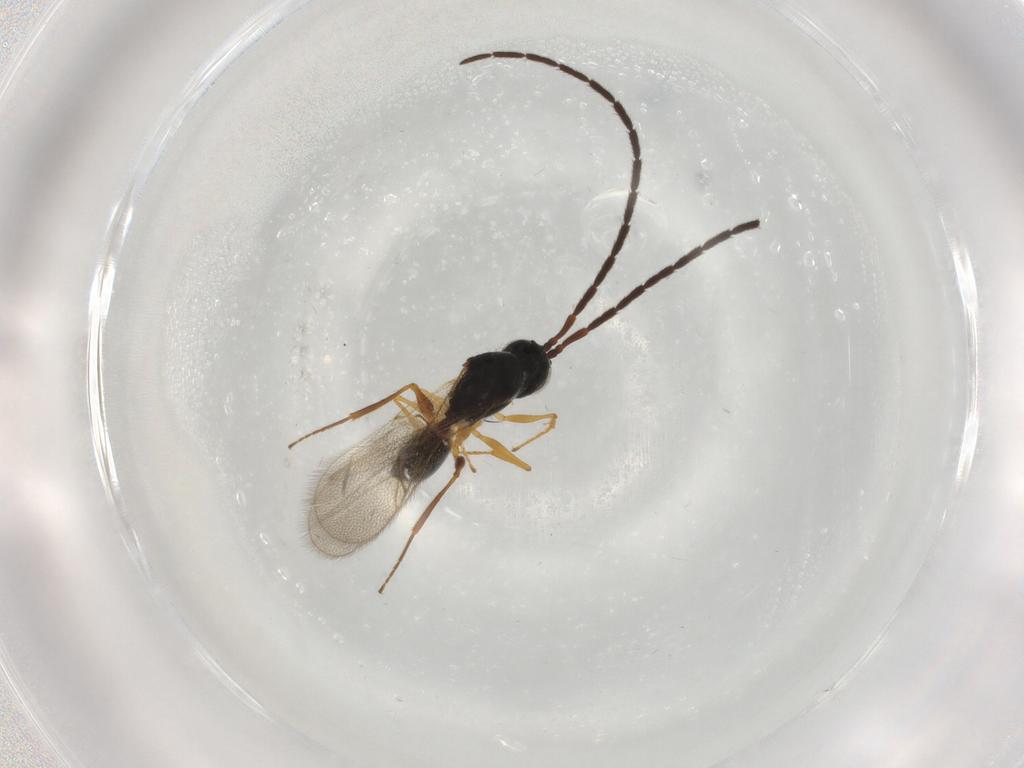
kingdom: Animalia
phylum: Arthropoda
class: Insecta
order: Hymenoptera
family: Figitidae
